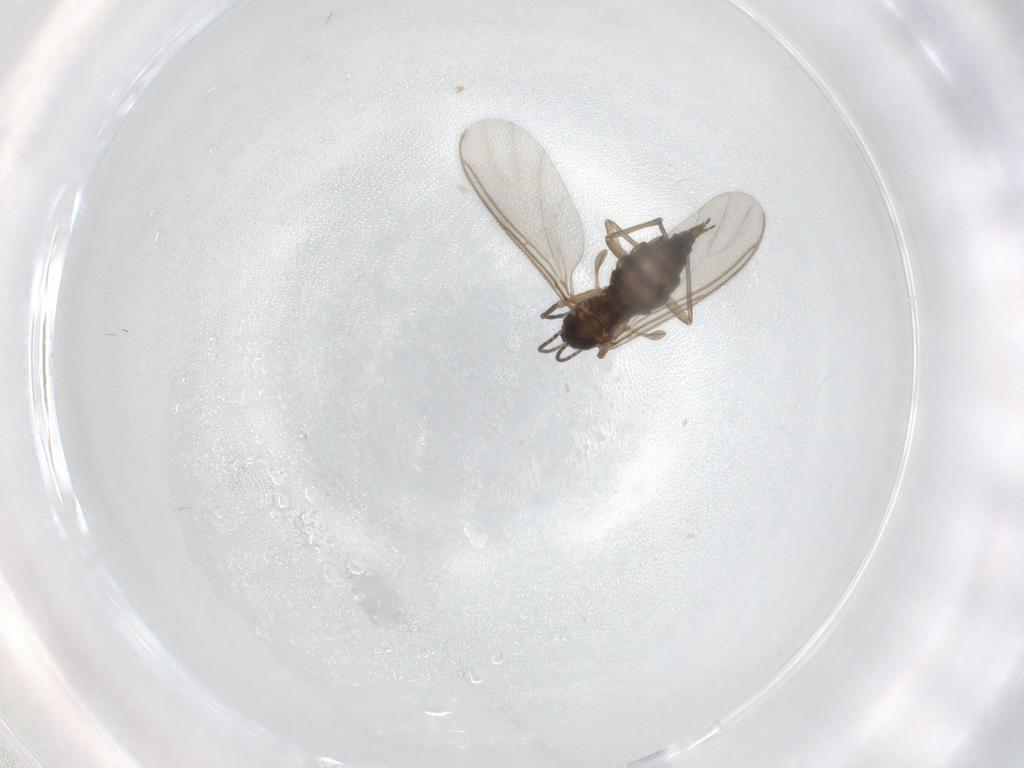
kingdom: Animalia
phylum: Arthropoda
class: Insecta
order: Diptera
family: Sciaridae
